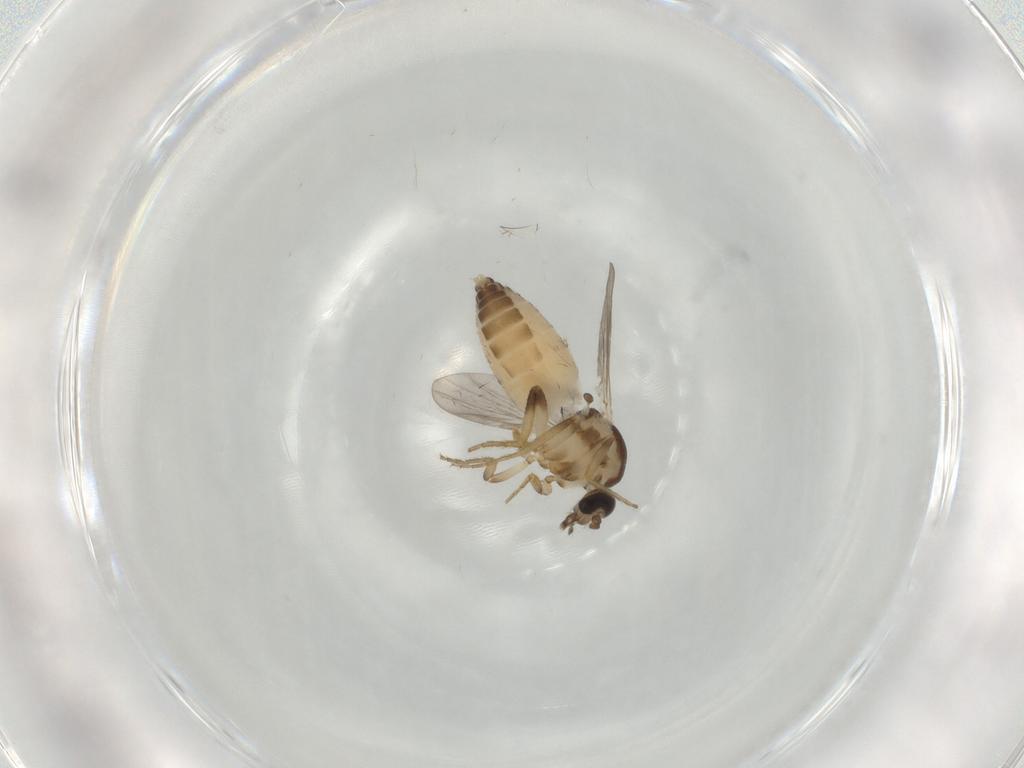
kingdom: Animalia
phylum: Arthropoda
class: Insecta
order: Diptera
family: Ceratopogonidae
